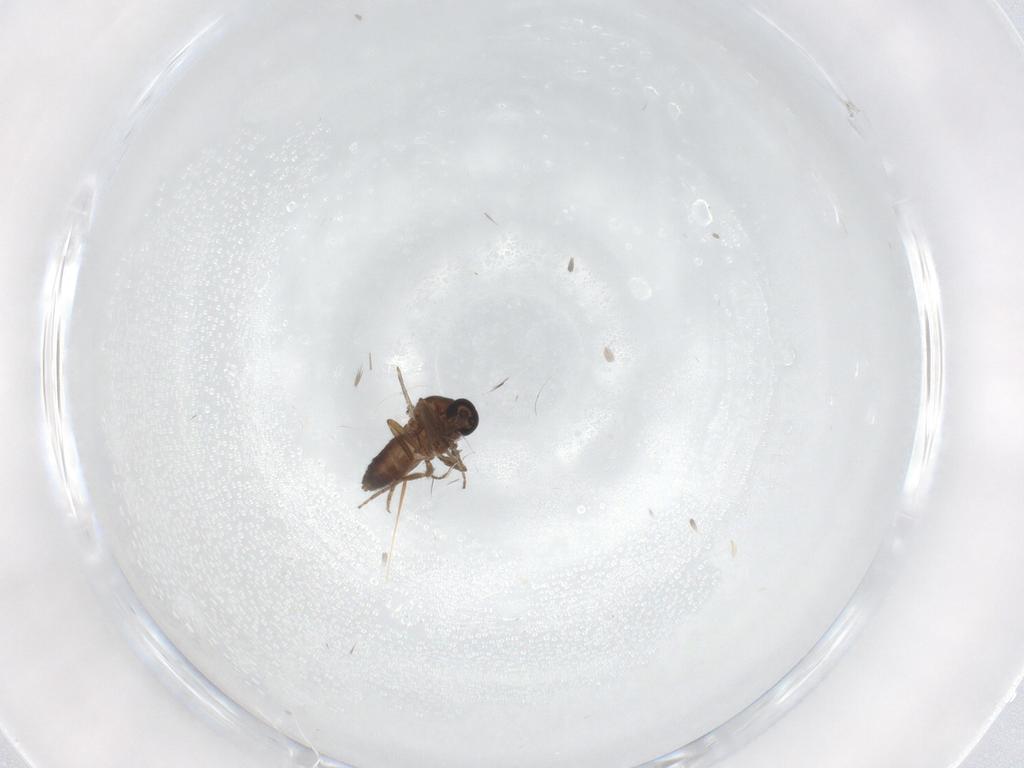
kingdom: Animalia
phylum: Arthropoda
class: Insecta
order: Diptera
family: Ceratopogonidae
